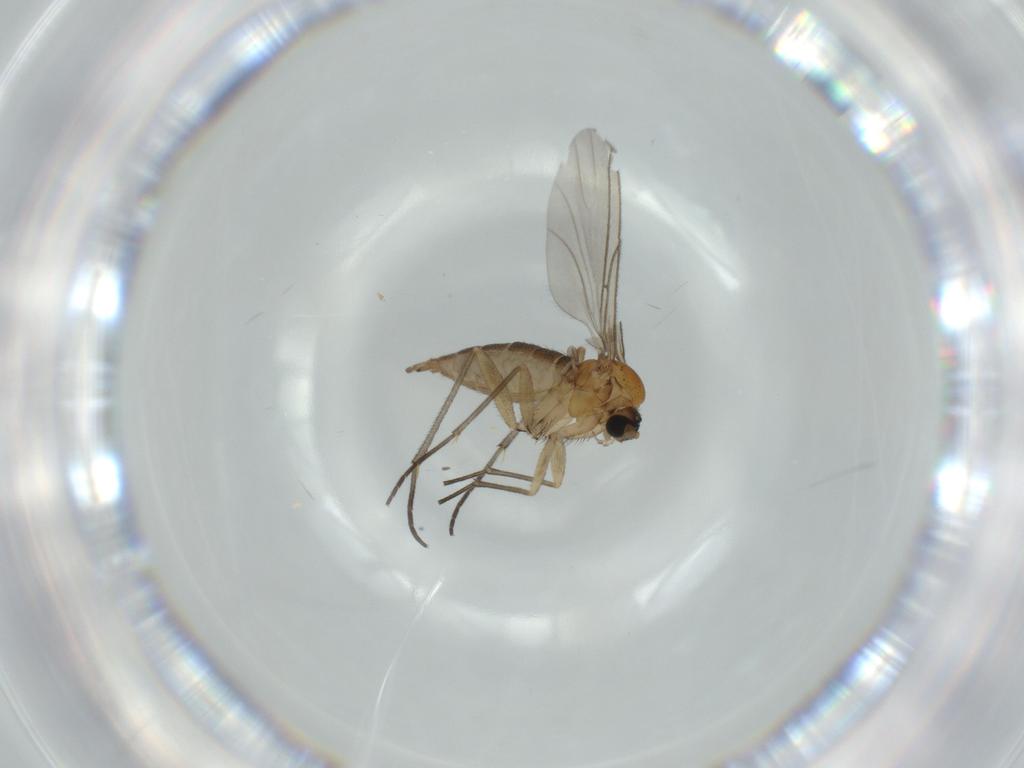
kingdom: Animalia
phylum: Arthropoda
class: Insecta
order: Diptera
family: Sciaridae
